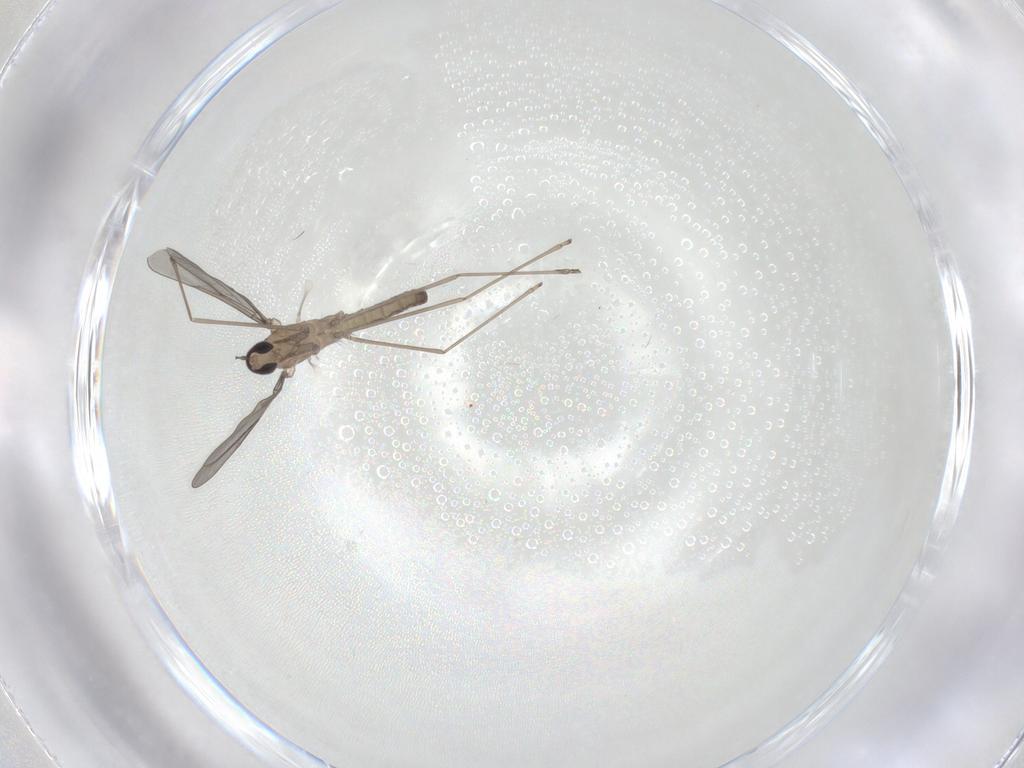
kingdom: Animalia
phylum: Arthropoda
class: Insecta
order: Diptera
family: Cecidomyiidae
